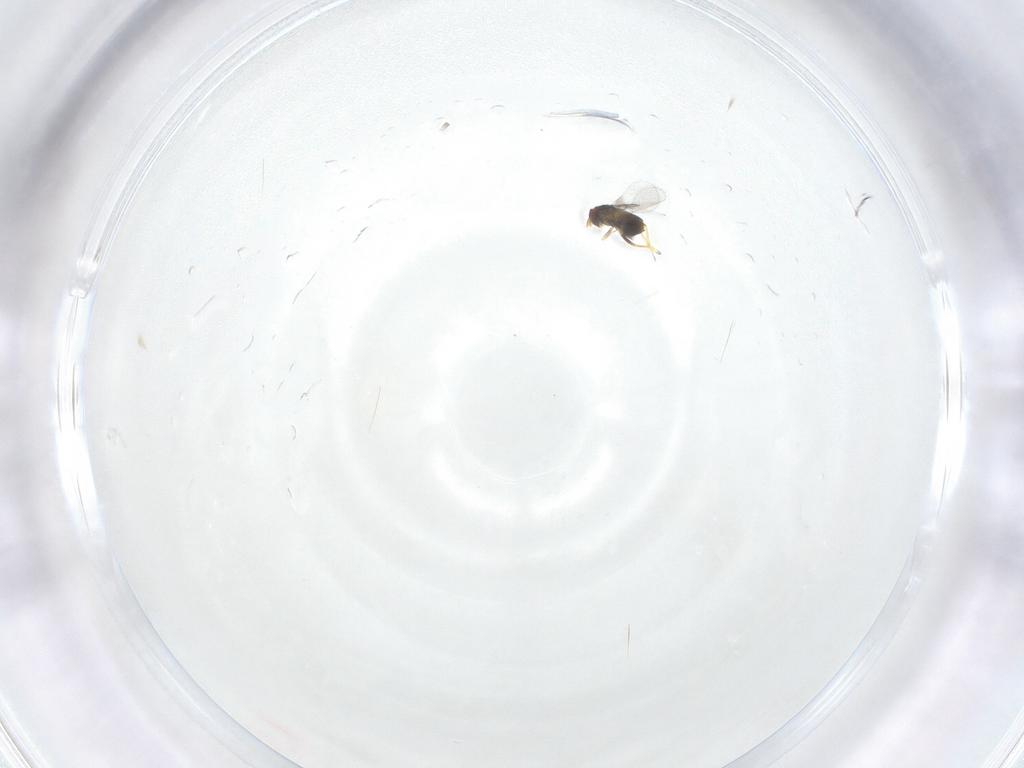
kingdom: Animalia
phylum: Arthropoda
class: Insecta
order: Hymenoptera
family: Trichogrammatidae
